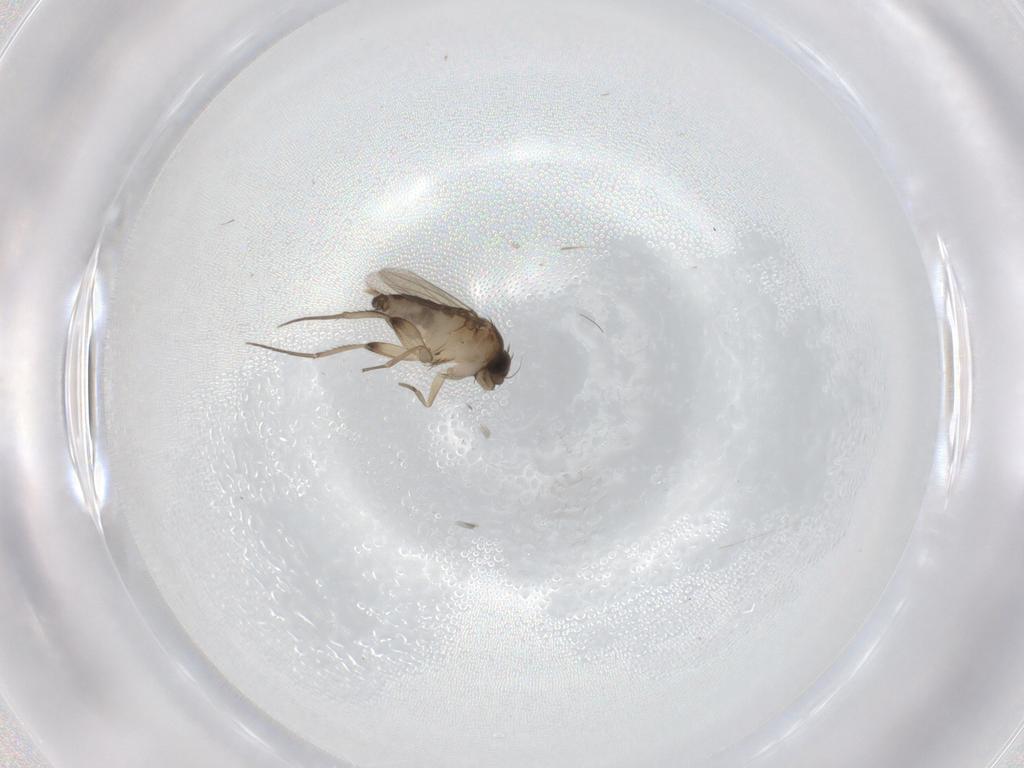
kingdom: Animalia
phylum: Arthropoda
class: Insecta
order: Diptera
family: Phoridae
